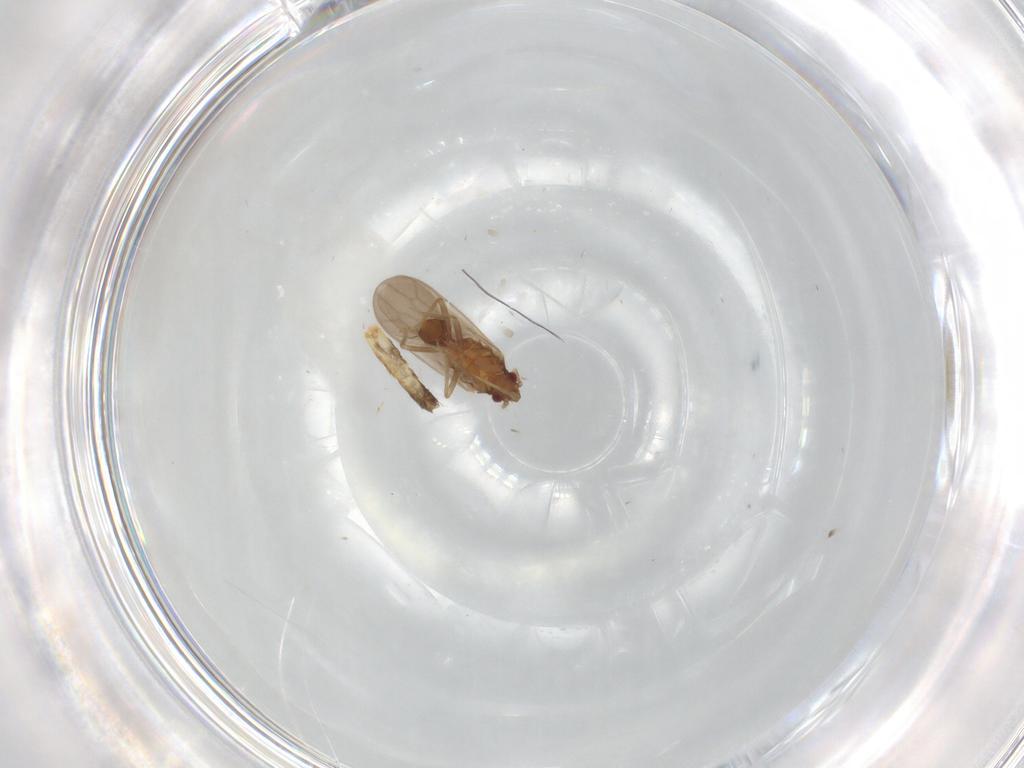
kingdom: Animalia
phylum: Arthropoda
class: Insecta
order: Hemiptera
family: Ceratocombidae
